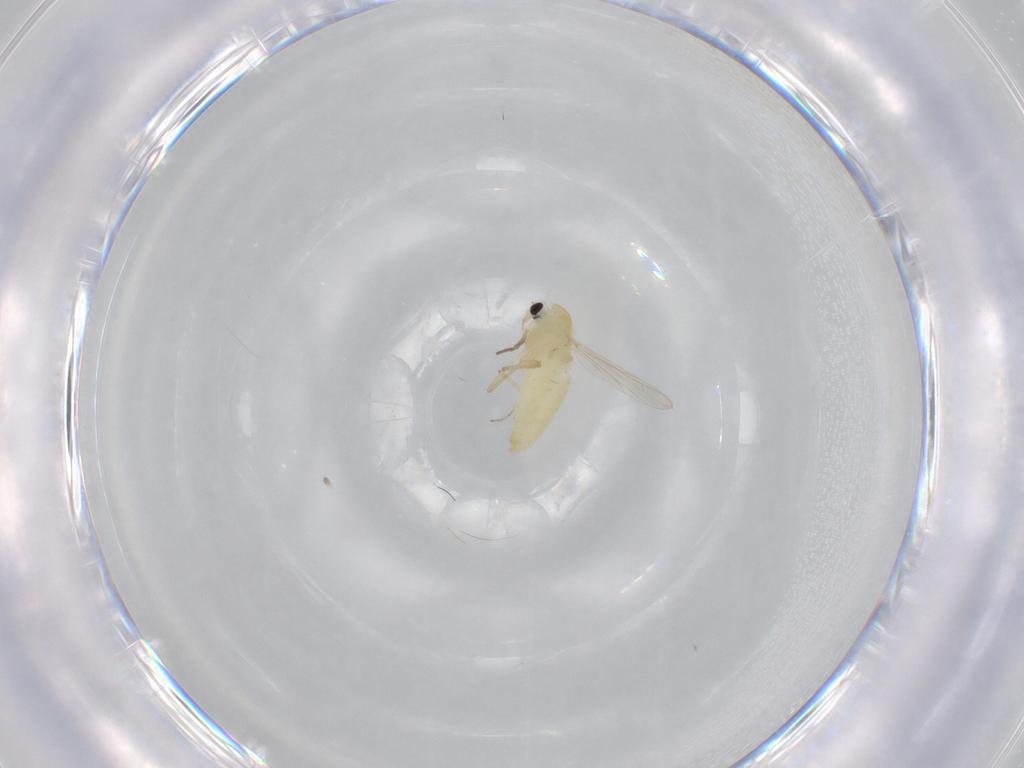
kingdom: Animalia
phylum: Arthropoda
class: Insecta
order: Diptera
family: Chironomidae
